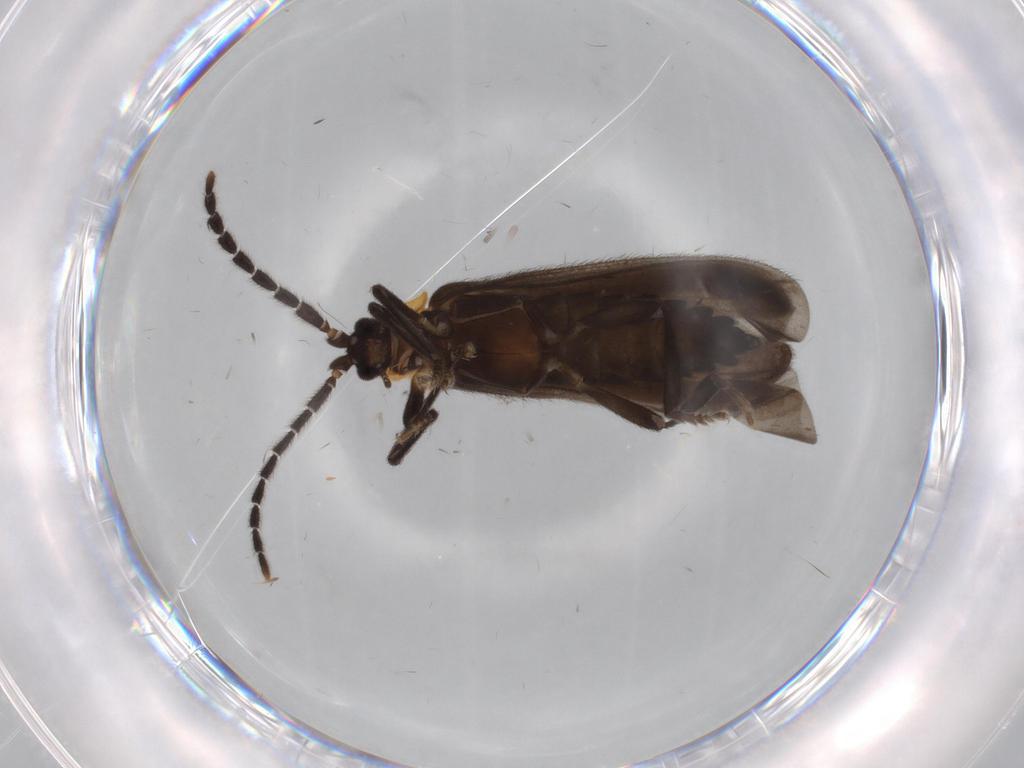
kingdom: Animalia
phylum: Arthropoda
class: Insecta
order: Coleoptera
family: Lycidae
